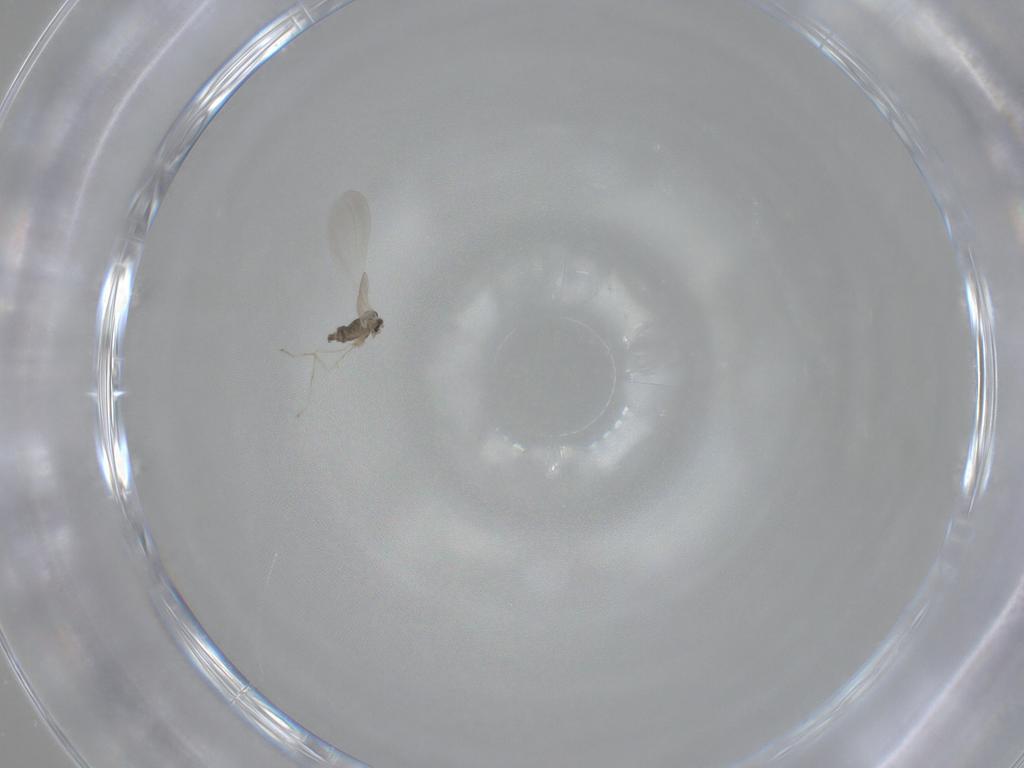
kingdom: Animalia
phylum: Arthropoda
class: Insecta
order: Diptera
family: Cecidomyiidae
